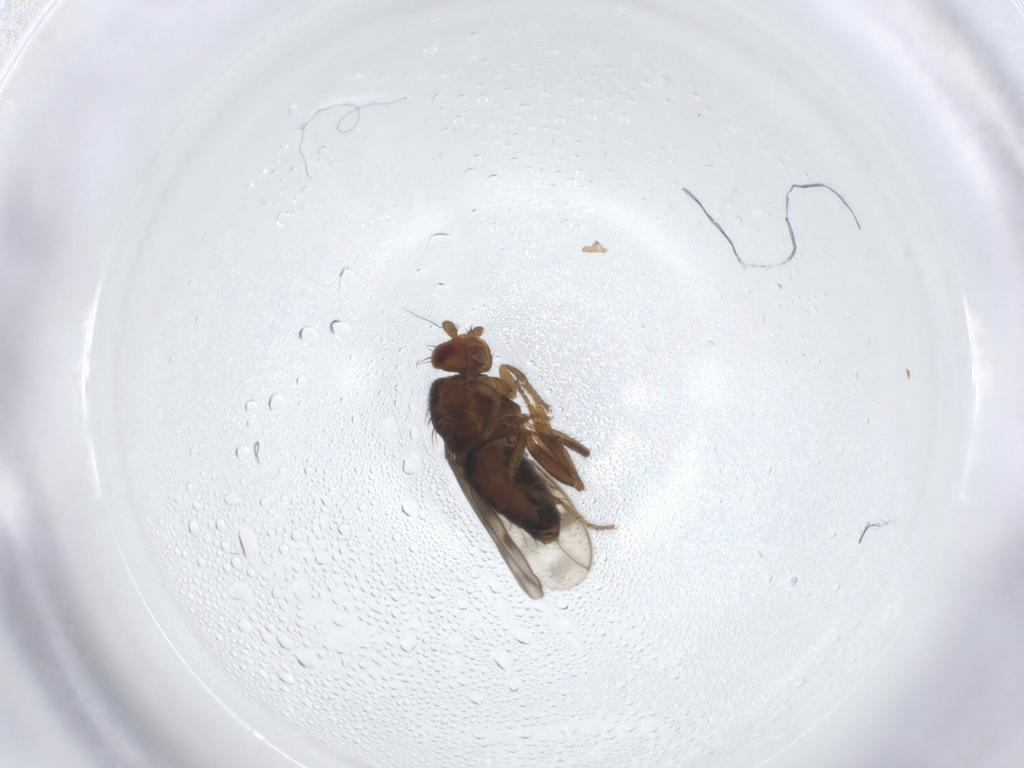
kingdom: Animalia
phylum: Arthropoda
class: Insecta
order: Diptera
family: Sphaeroceridae
